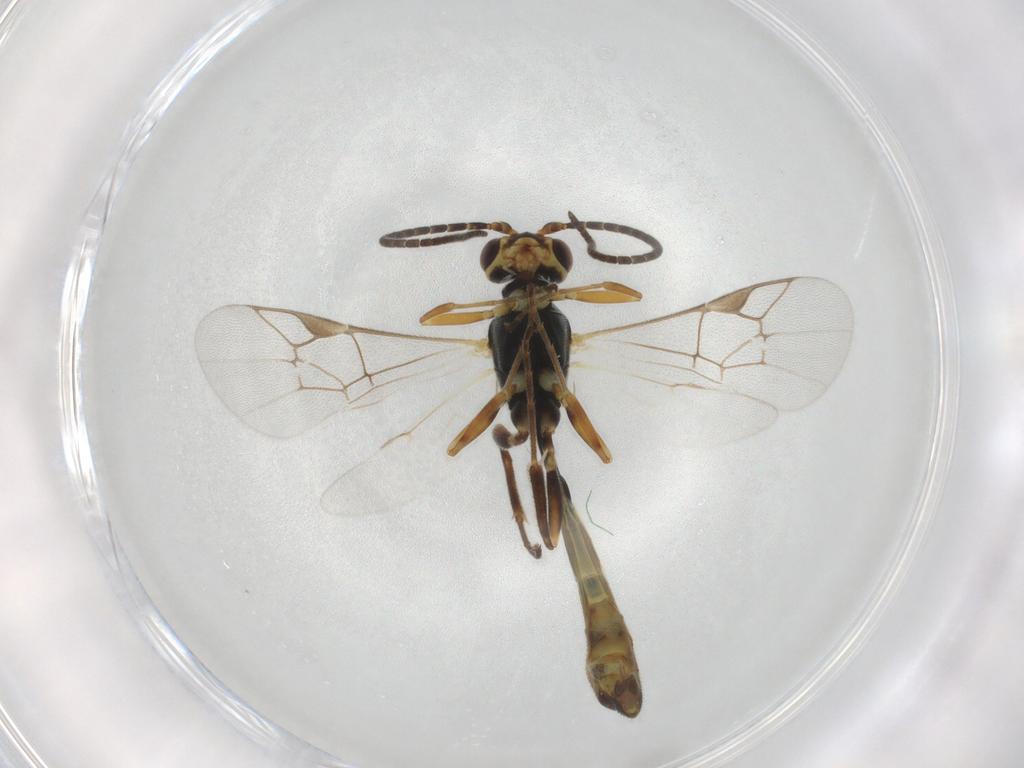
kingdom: Animalia
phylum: Arthropoda
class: Insecta
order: Hymenoptera
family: Ichneumonidae
